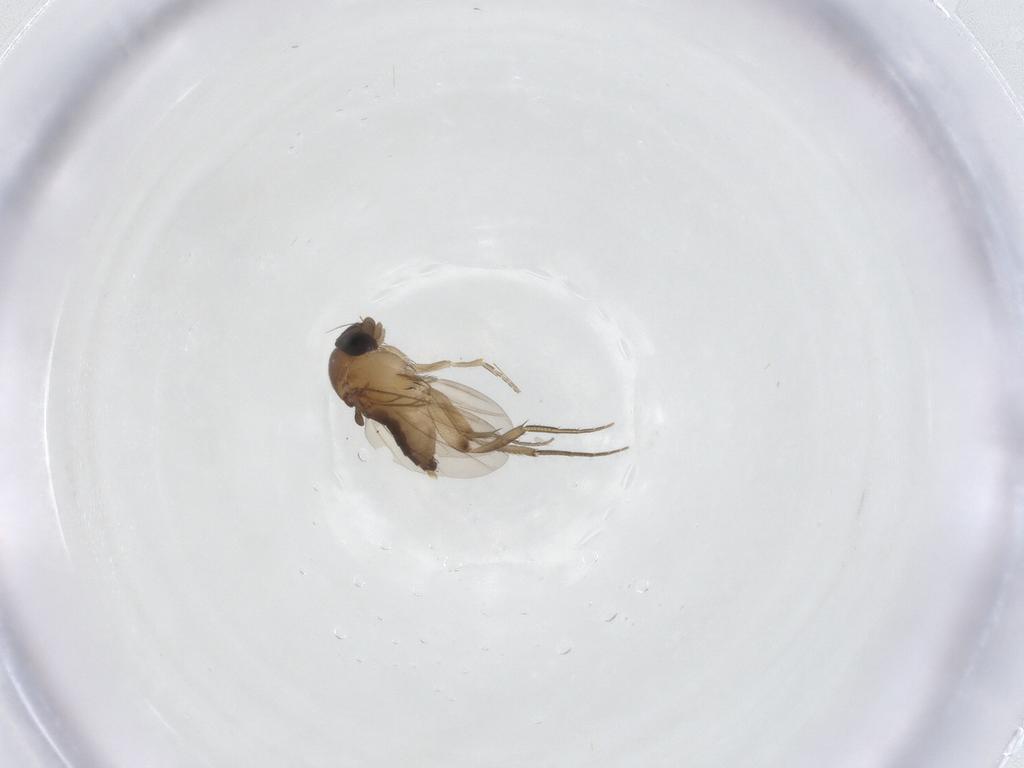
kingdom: Animalia
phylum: Arthropoda
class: Insecta
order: Diptera
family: Phoridae
